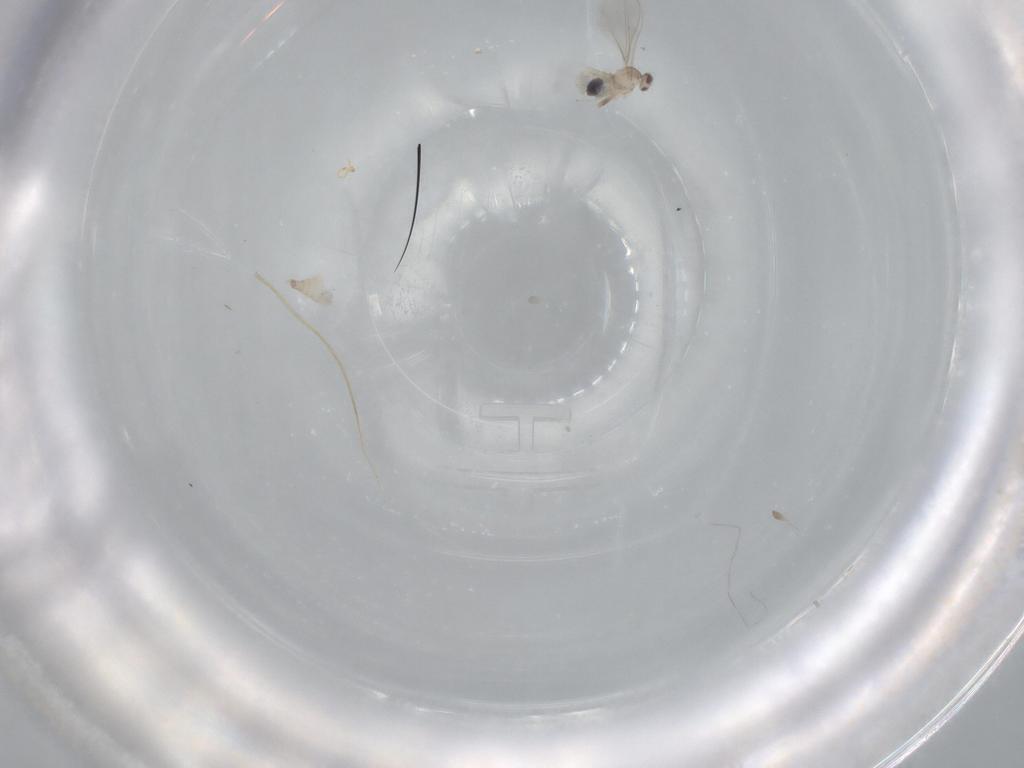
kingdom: Animalia
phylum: Arthropoda
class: Insecta
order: Diptera
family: Cecidomyiidae
